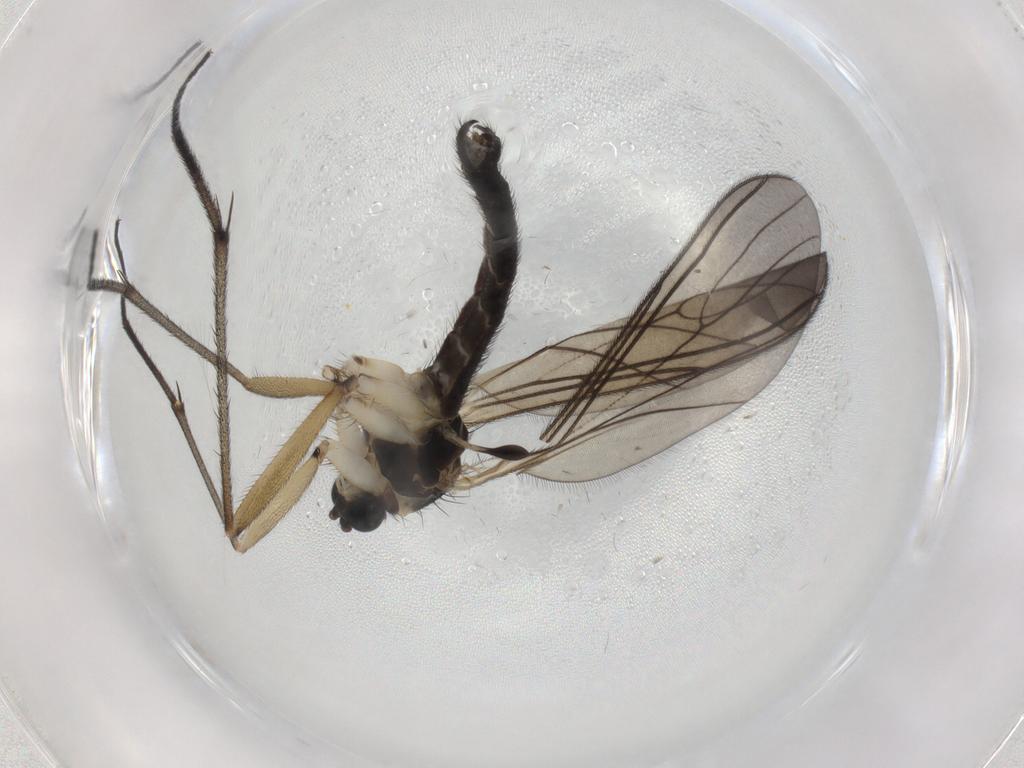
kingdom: Animalia
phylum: Arthropoda
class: Insecta
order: Diptera
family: Sciaridae
